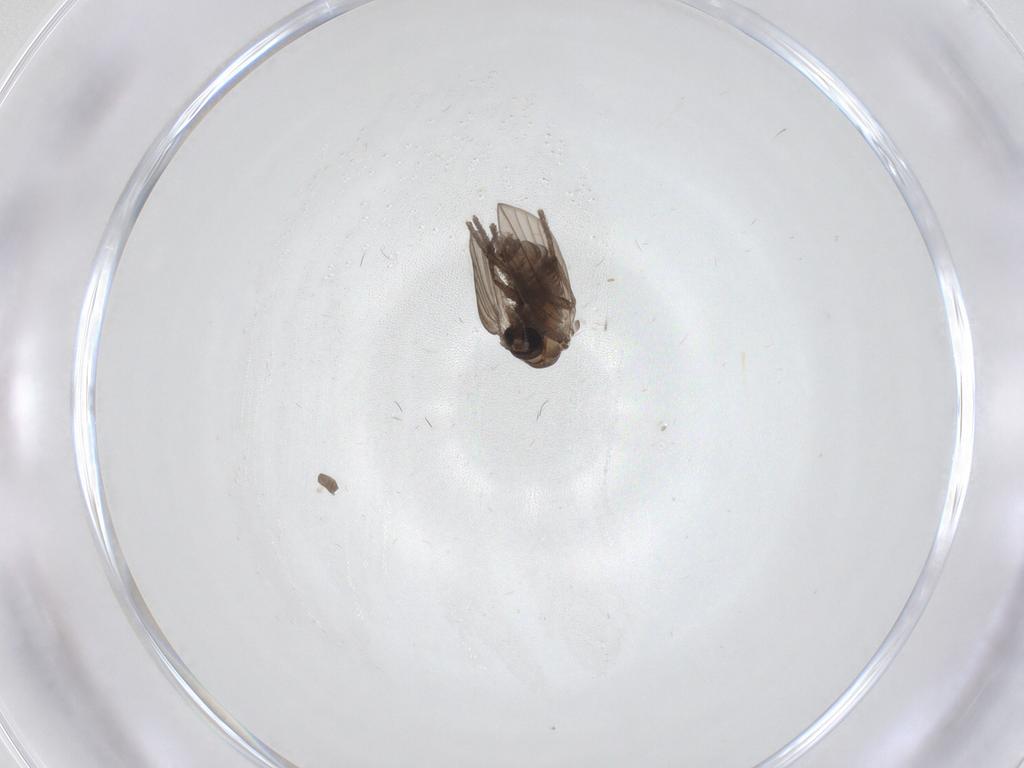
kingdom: Animalia
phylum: Arthropoda
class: Insecta
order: Diptera
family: Psychodidae
